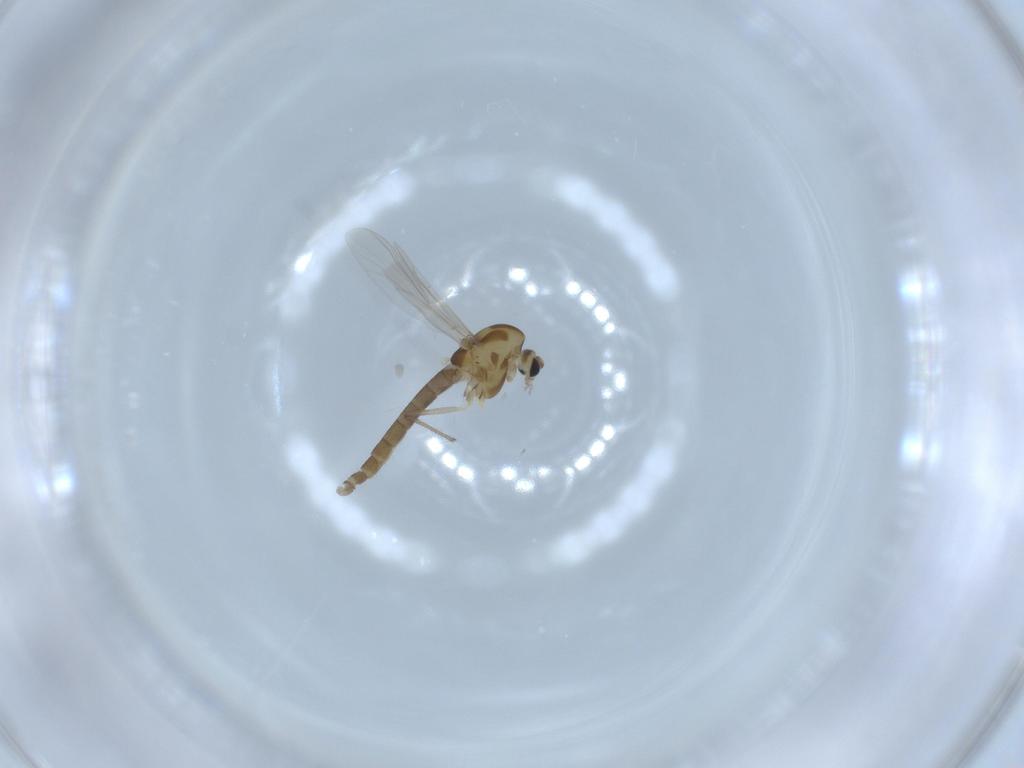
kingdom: Animalia
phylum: Arthropoda
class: Insecta
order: Diptera
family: Chironomidae
